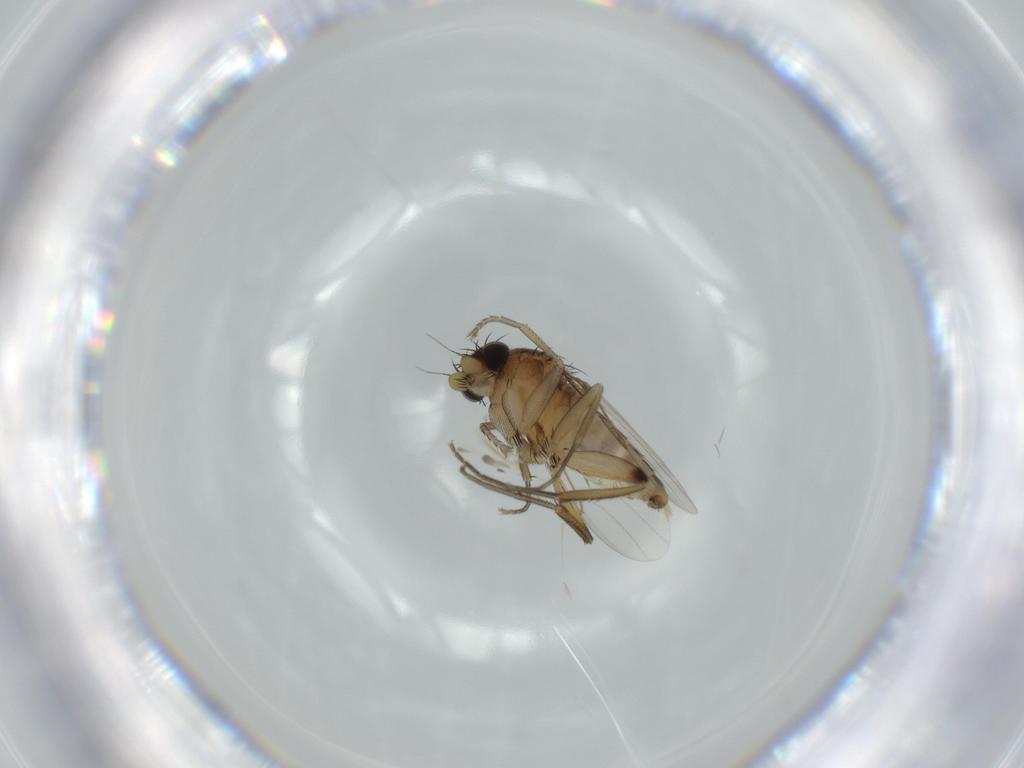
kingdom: Animalia
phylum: Arthropoda
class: Insecta
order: Diptera
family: Phoridae
